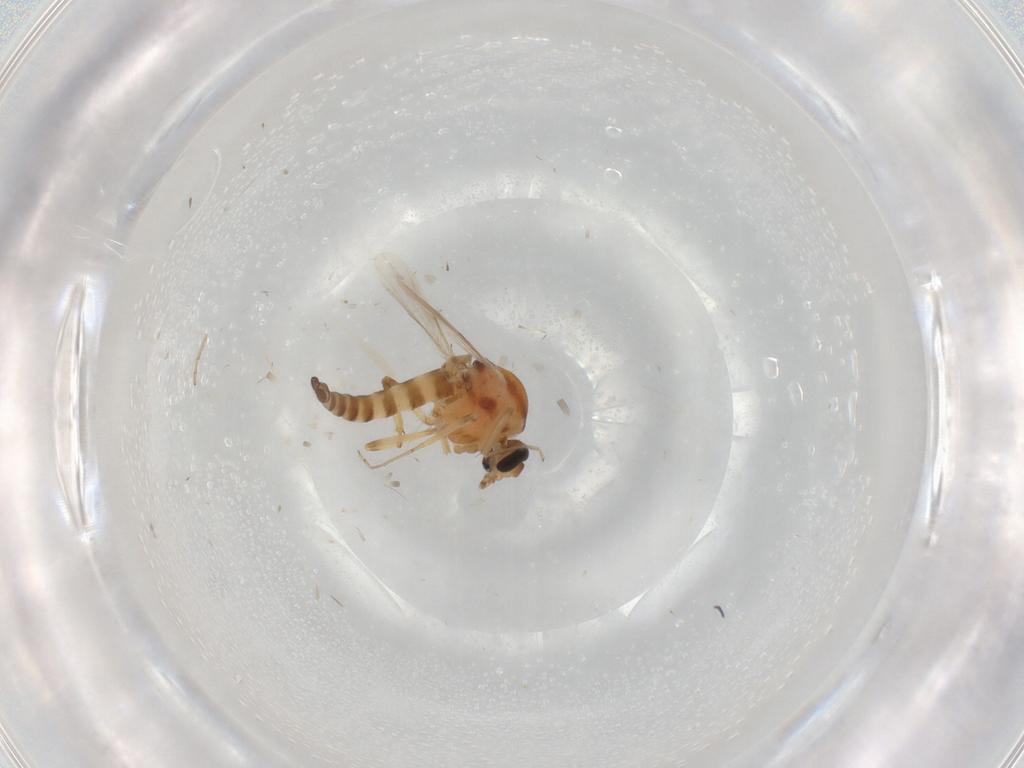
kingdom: Animalia
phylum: Arthropoda
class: Insecta
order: Diptera
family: Ceratopogonidae
